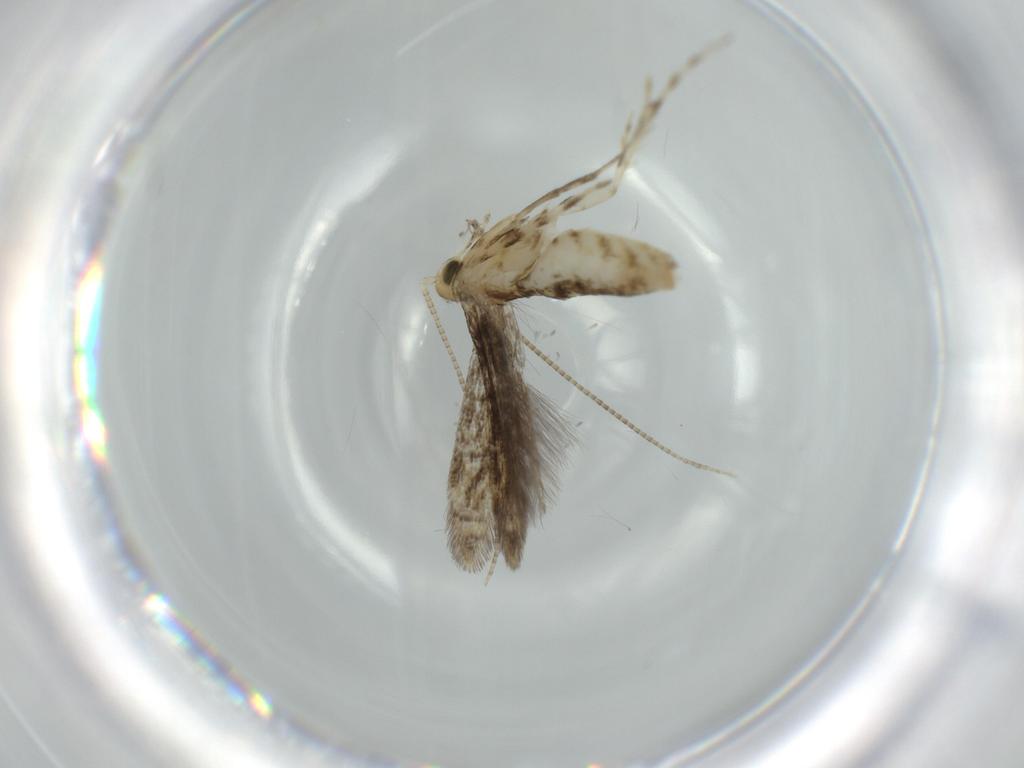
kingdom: Animalia
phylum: Arthropoda
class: Insecta
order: Lepidoptera
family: Gracillariidae
